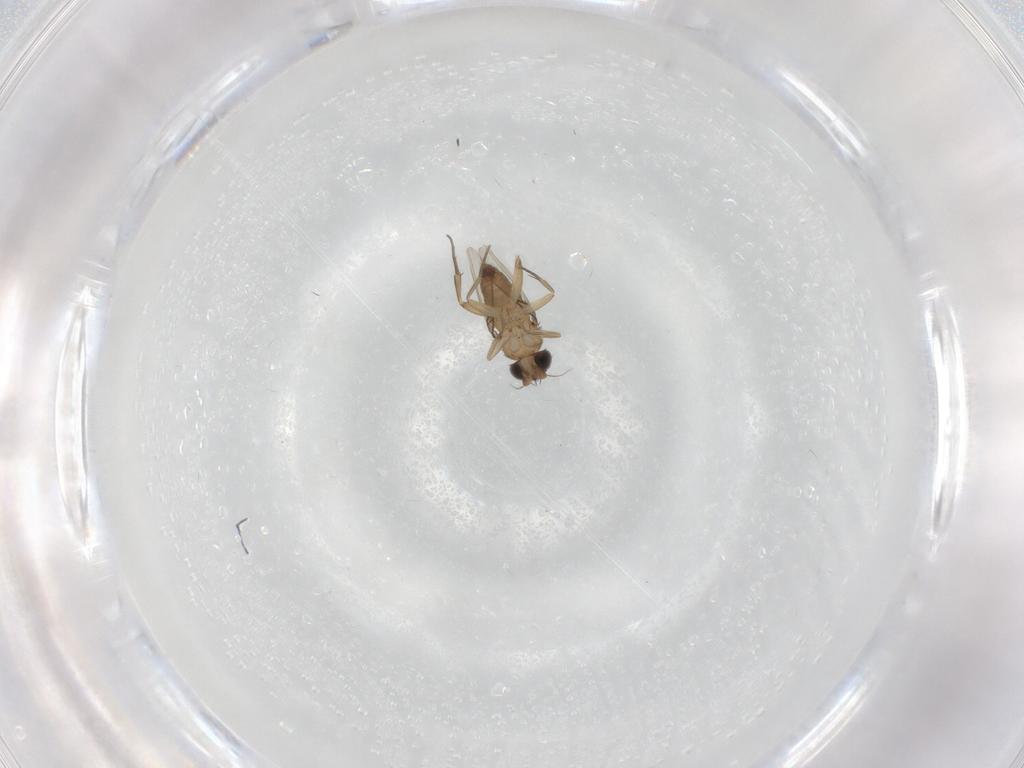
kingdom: Animalia
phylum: Arthropoda
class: Insecta
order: Diptera
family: Phoridae
